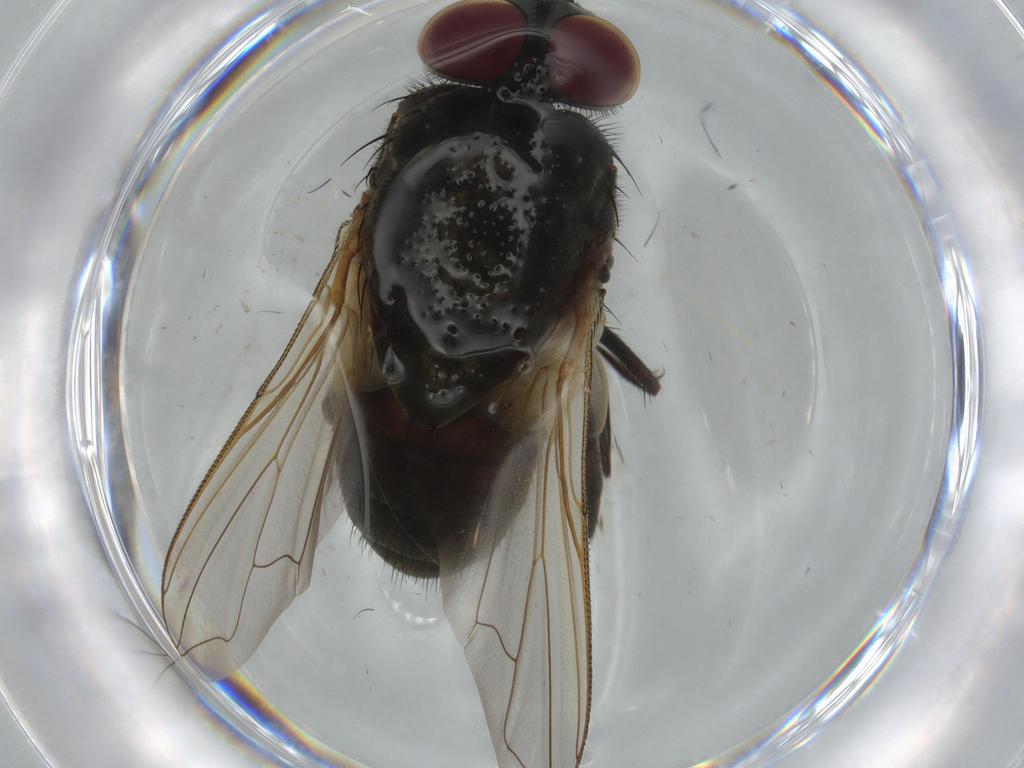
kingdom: Animalia
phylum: Arthropoda
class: Insecta
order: Diptera
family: Dolichopodidae
